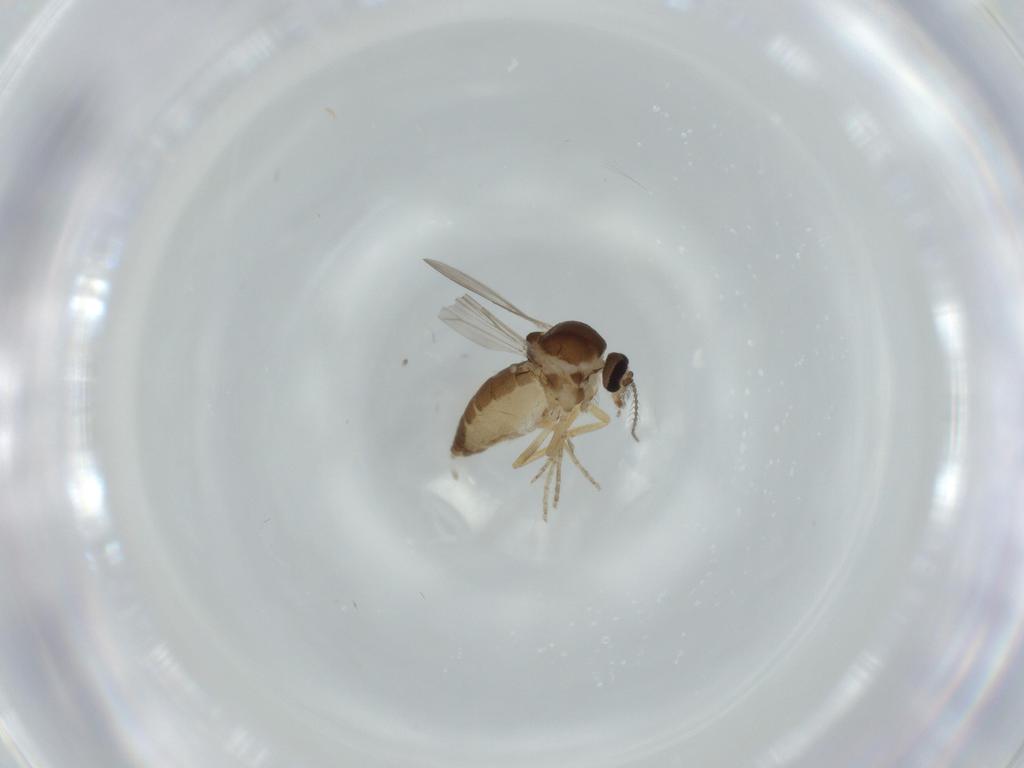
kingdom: Animalia
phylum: Arthropoda
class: Insecta
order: Diptera
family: Ceratopogonidae
